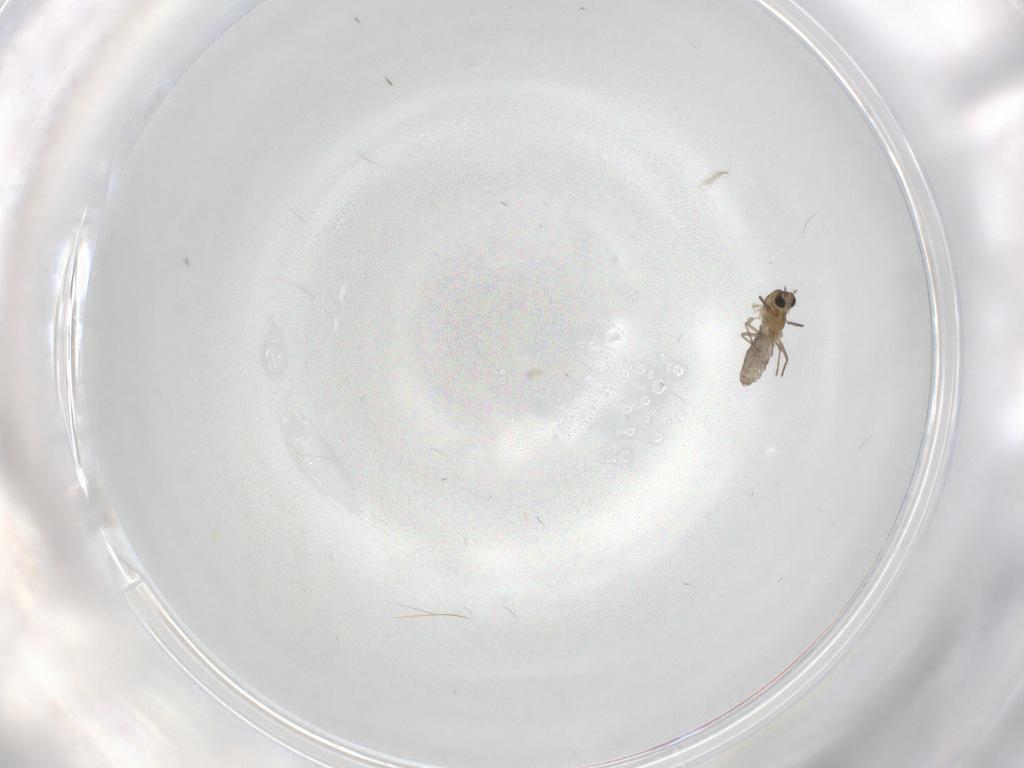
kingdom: Animalia
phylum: Arthropoda
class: Insecta
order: Diptera
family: Chironomidae
